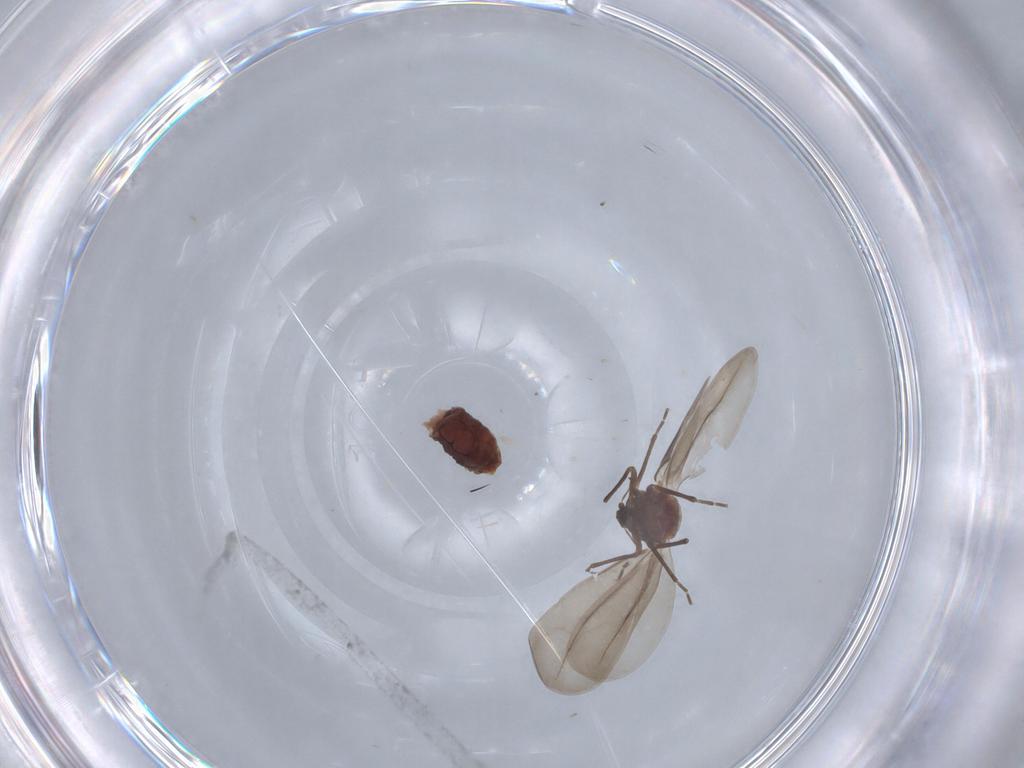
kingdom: Animalia
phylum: Arthropoda
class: Insecta
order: Hemiptera
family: Aleyrodidae
